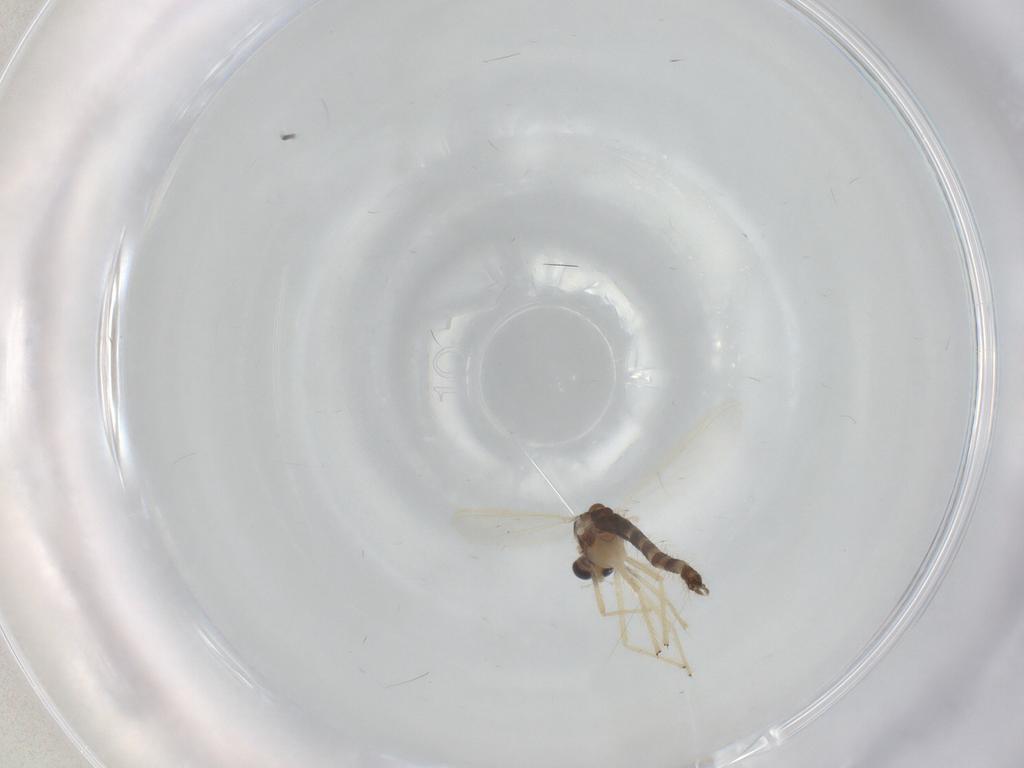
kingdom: Animalia
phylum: Arthropoda
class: Insecta
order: Diptera
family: Chironomidae
